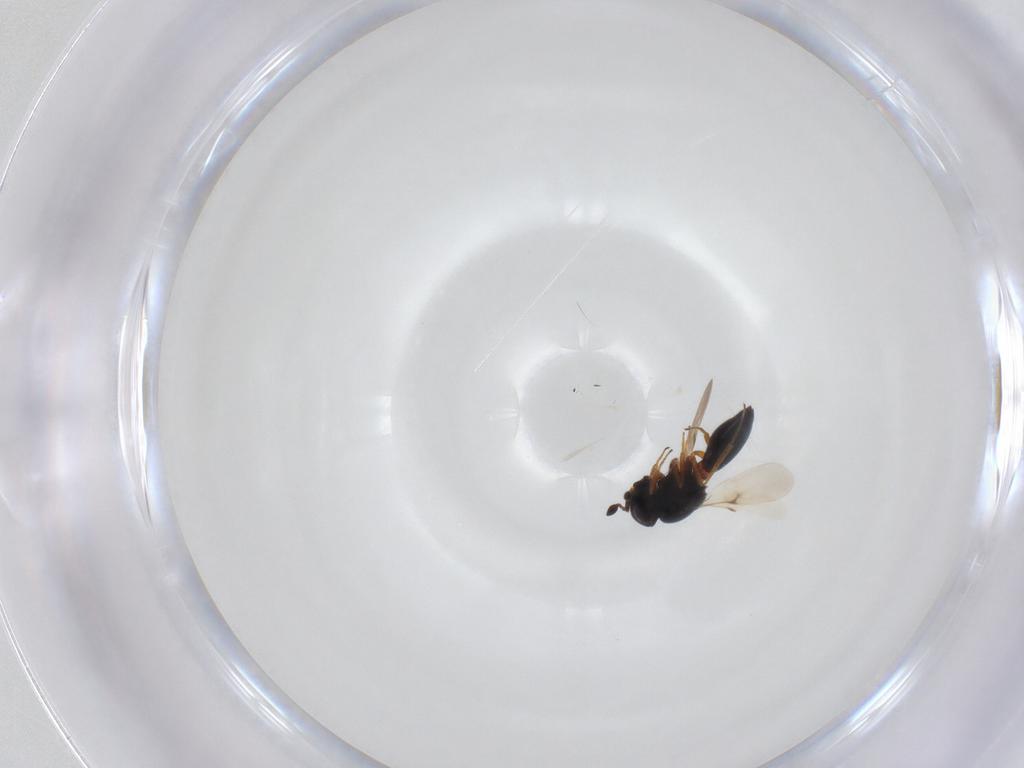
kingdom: Animalia
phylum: Arthropoda
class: Insecta
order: Hymenoptera
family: Scelionidae
